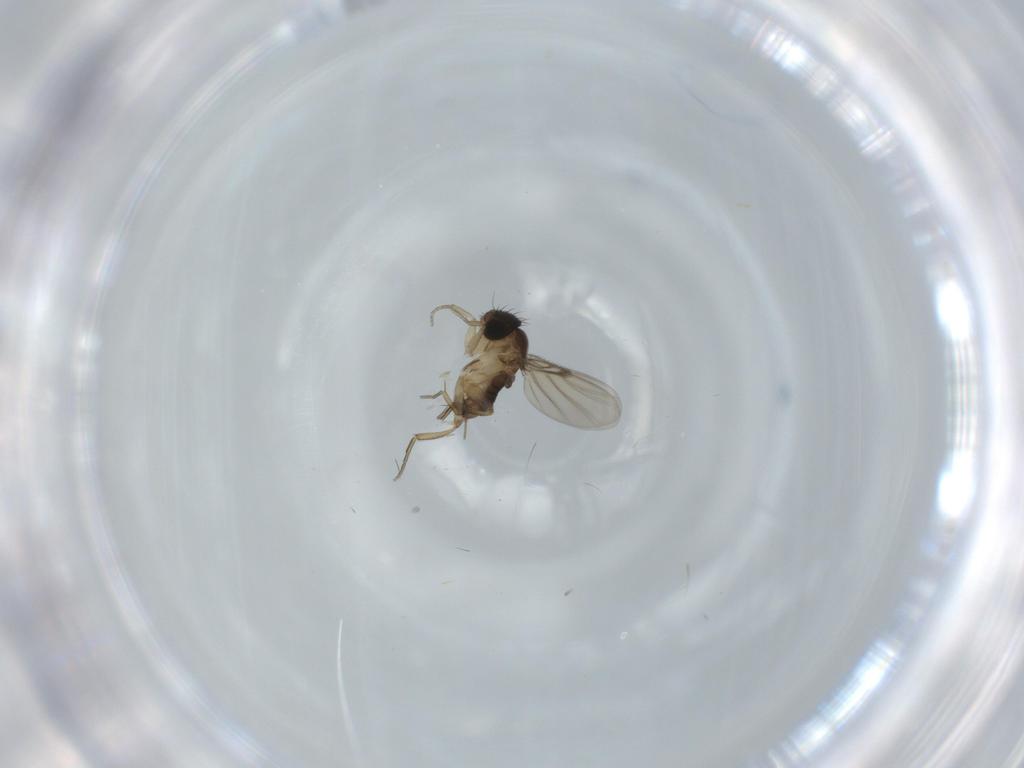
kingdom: Animalia
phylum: Arthropoda
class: Insecta
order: Diptera
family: Phoridae
